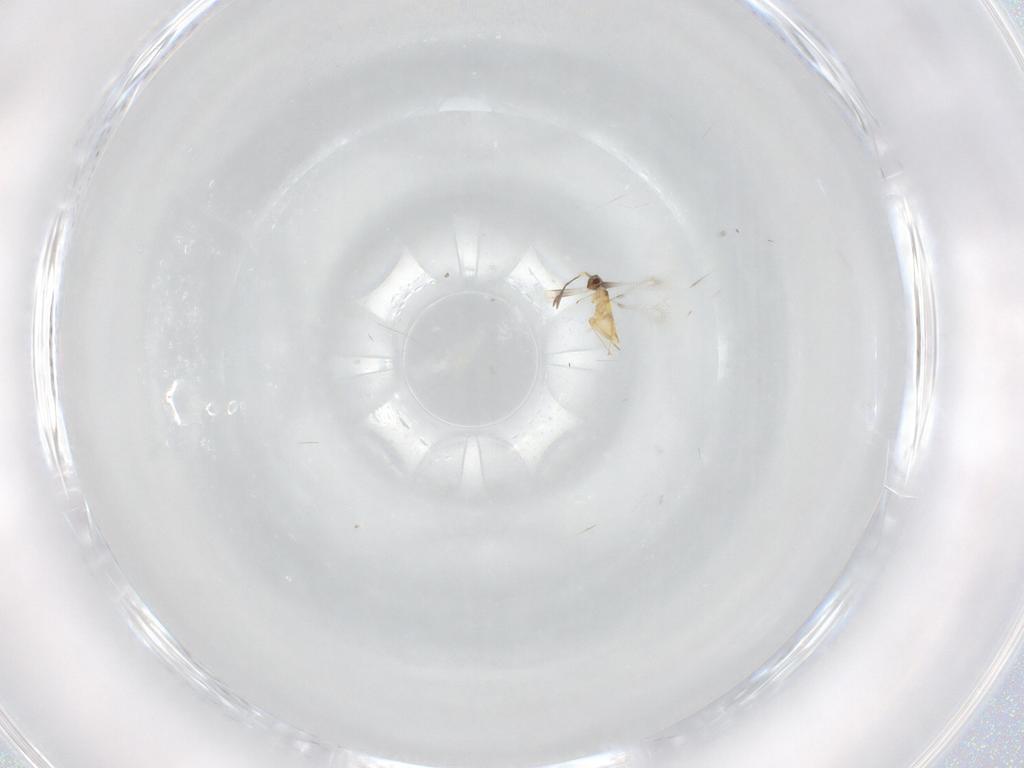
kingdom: Animalia
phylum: Arthropoda
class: Insecta
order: Hymenoptera
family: Mymaridae
